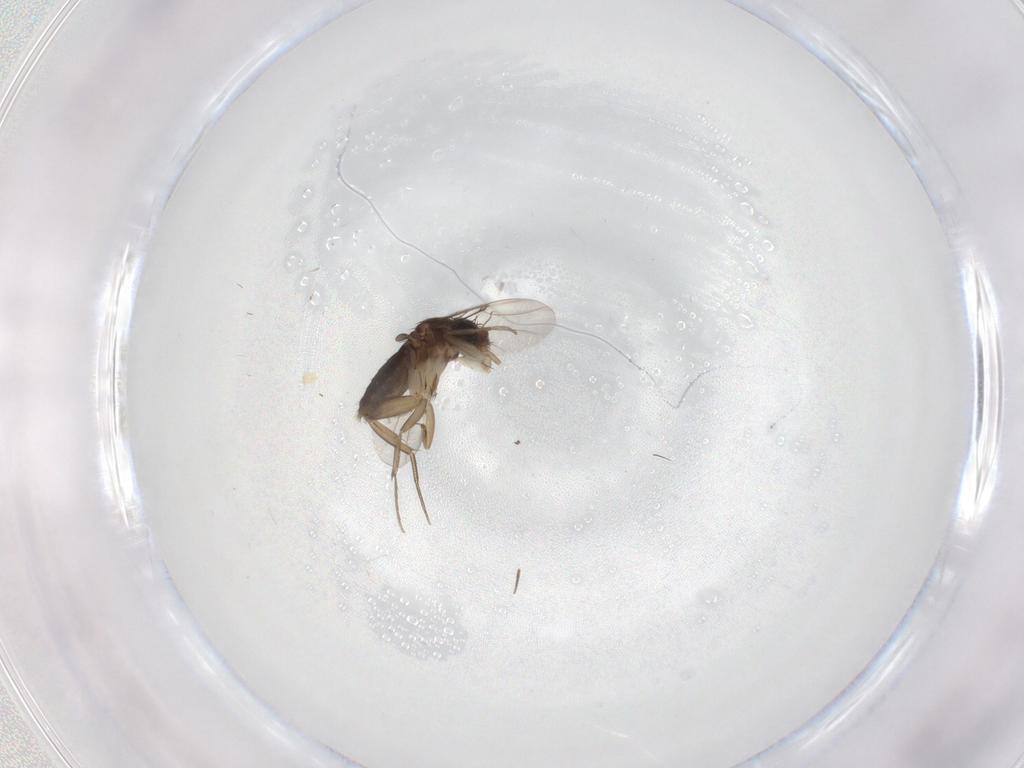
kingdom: Animalia
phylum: Arthropoda
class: Insecta
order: Diptera
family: Phoridae
